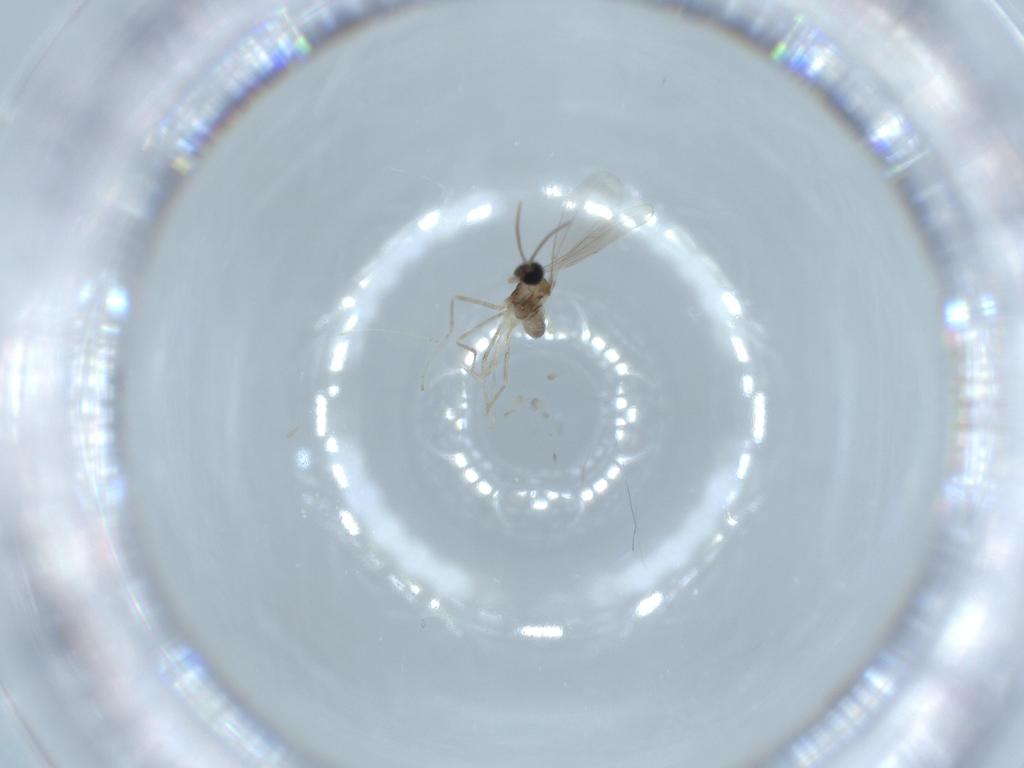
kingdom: Animalia
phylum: Arthropoda
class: Insecta
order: Diptera
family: Cecidomyiidae
